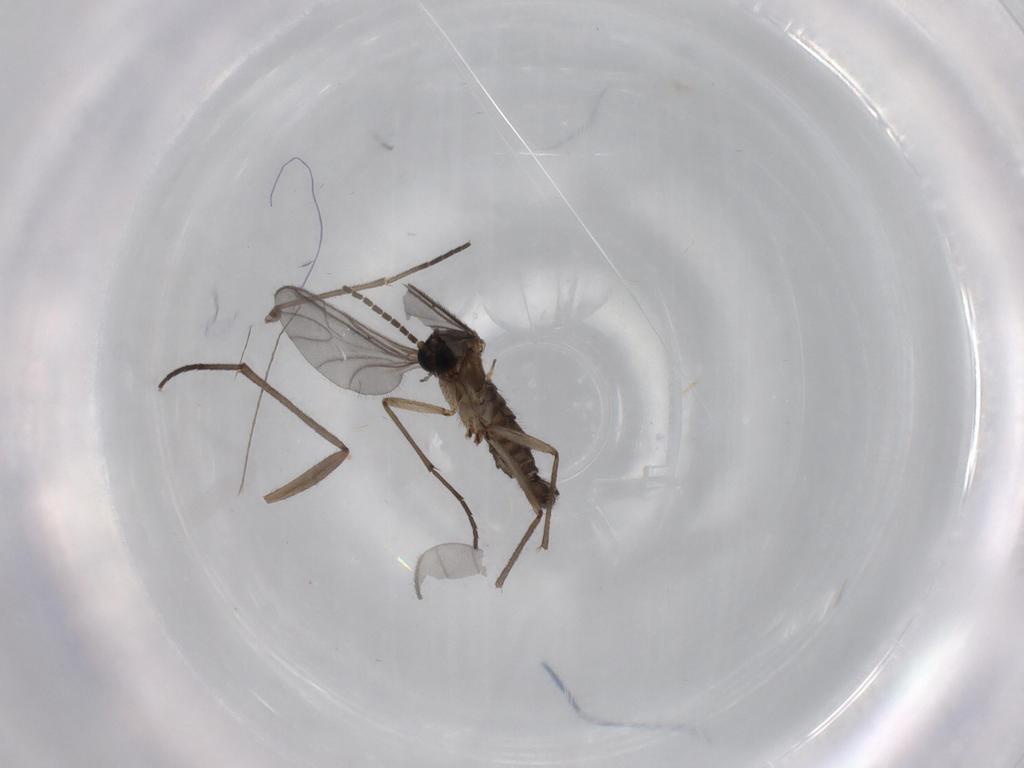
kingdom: Animalia
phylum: Arthropoda
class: Insecta
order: Diptera
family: Sciaridae
